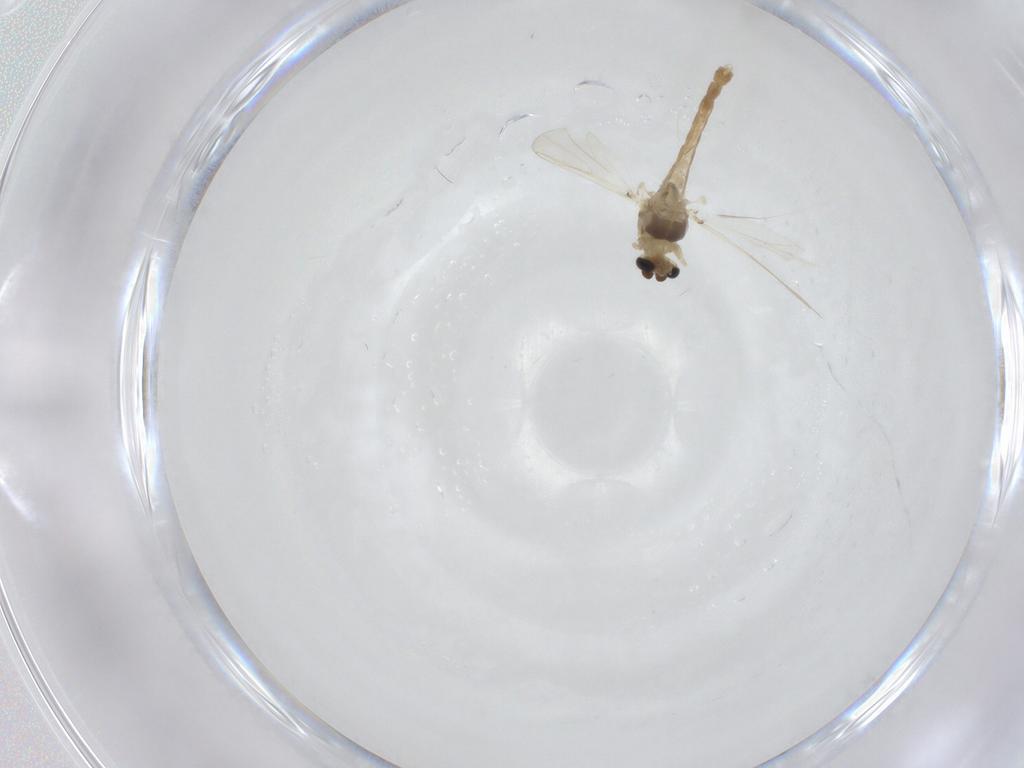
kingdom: Animalia
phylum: Arthropoda
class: Insecta
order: Diptera
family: Chironomidae
